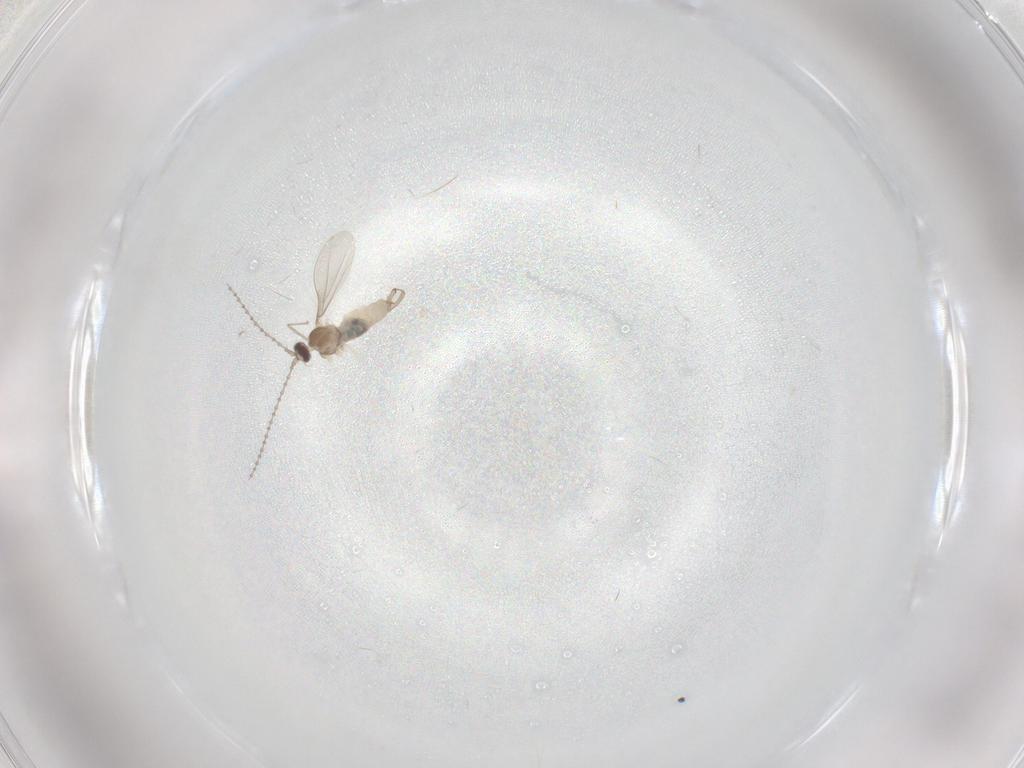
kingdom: Animalia
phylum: Arthropoda
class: Insecta
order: Diptera
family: Cecidomyiidae
